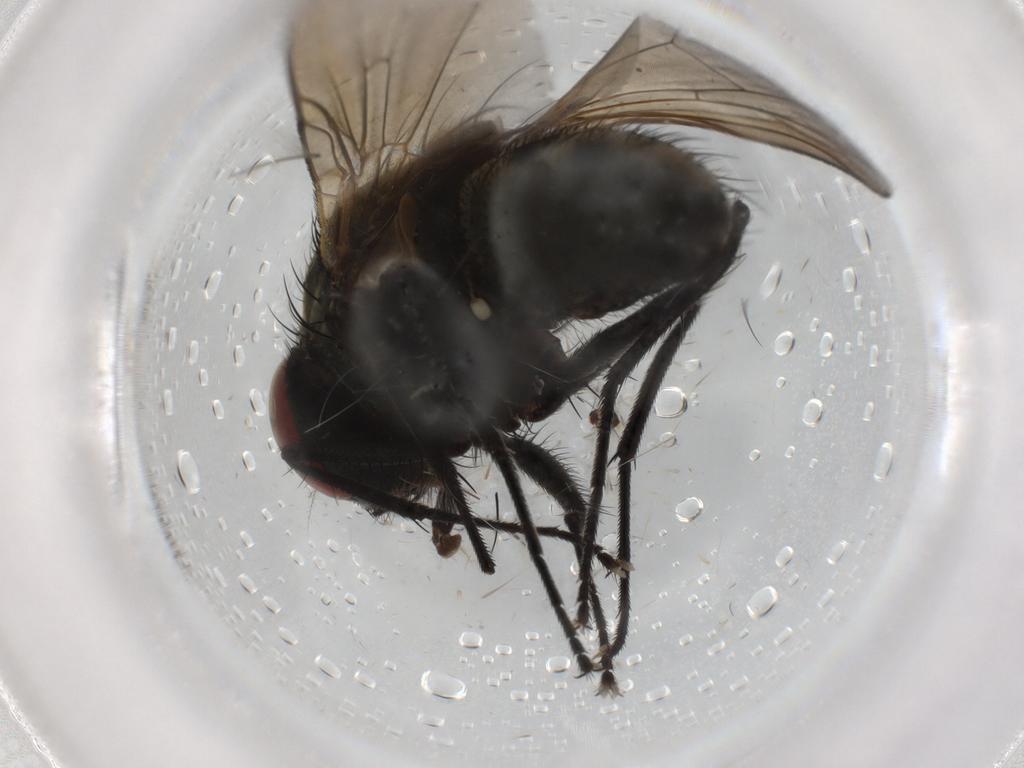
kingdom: Animalia
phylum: Arthropoda
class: Insecta
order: Diptera
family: Muscidae
